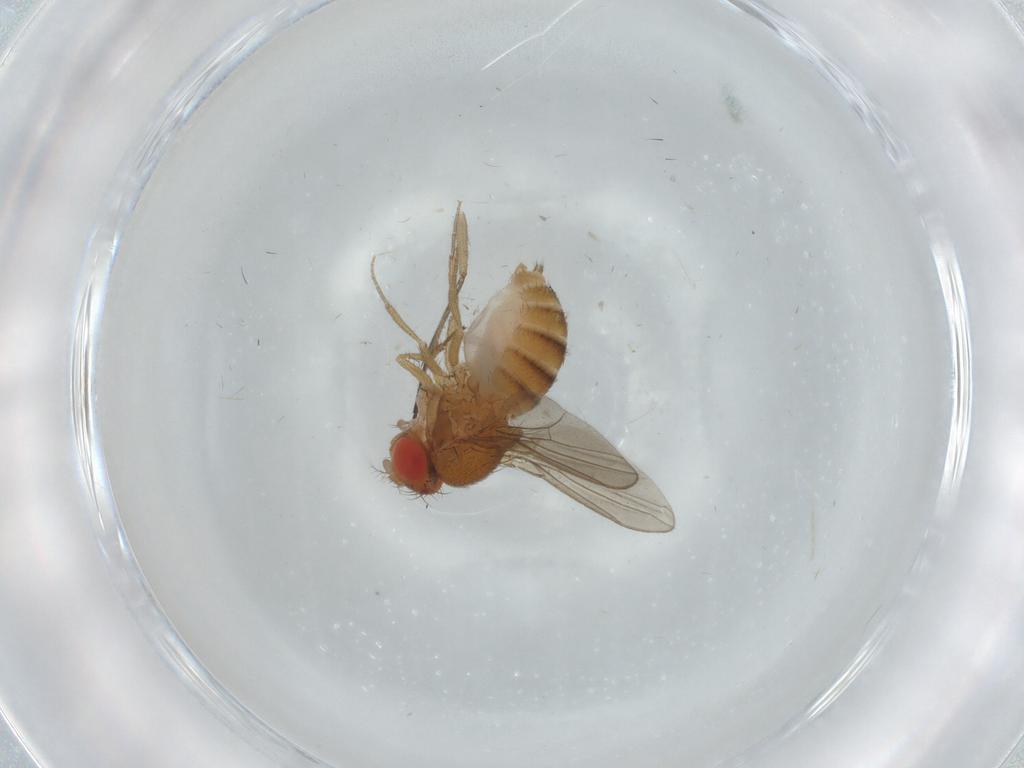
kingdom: Animalia
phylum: Arthropoda
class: Insecta
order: Diptera
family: Drosophilidae
